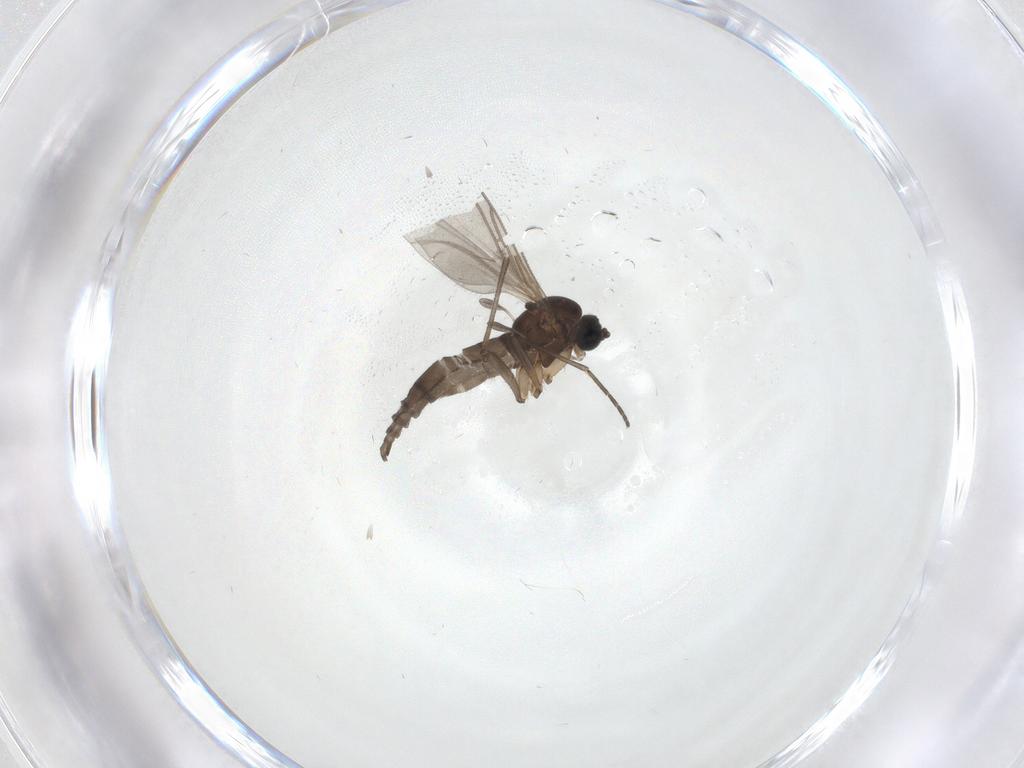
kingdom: Animalia
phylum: Arthropoda
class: Insecta
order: Diptera
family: Sciaridae
